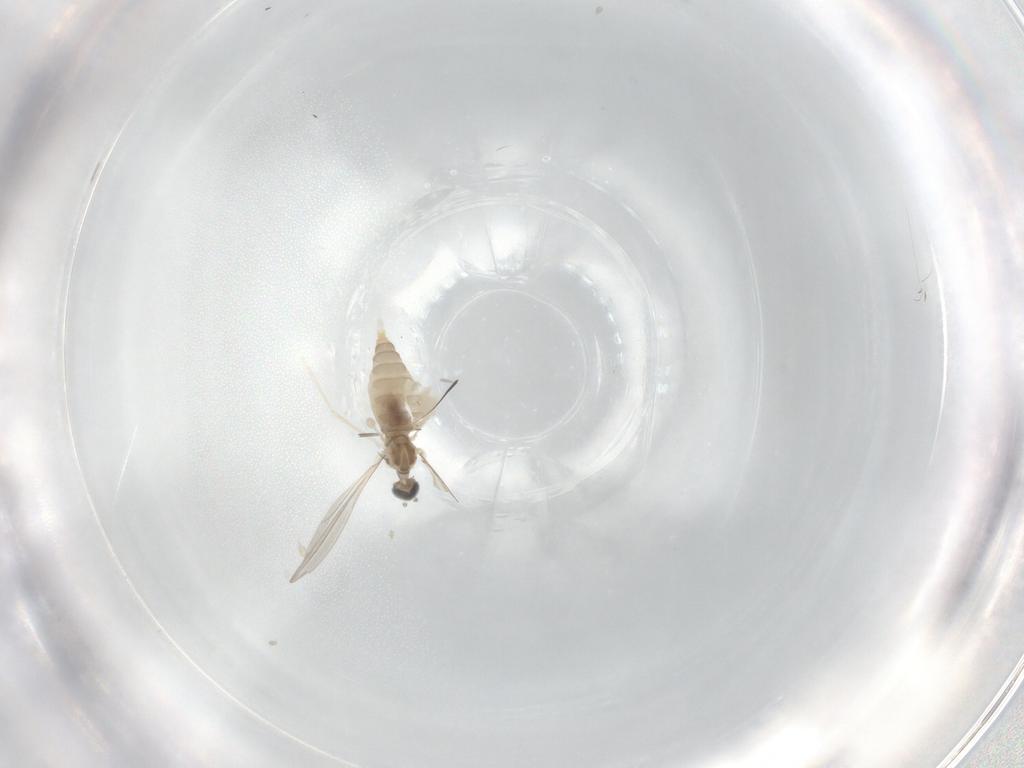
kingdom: Animalia
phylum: Arthropoda
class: Insecta
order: Diptera
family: Cecidomyiidae
